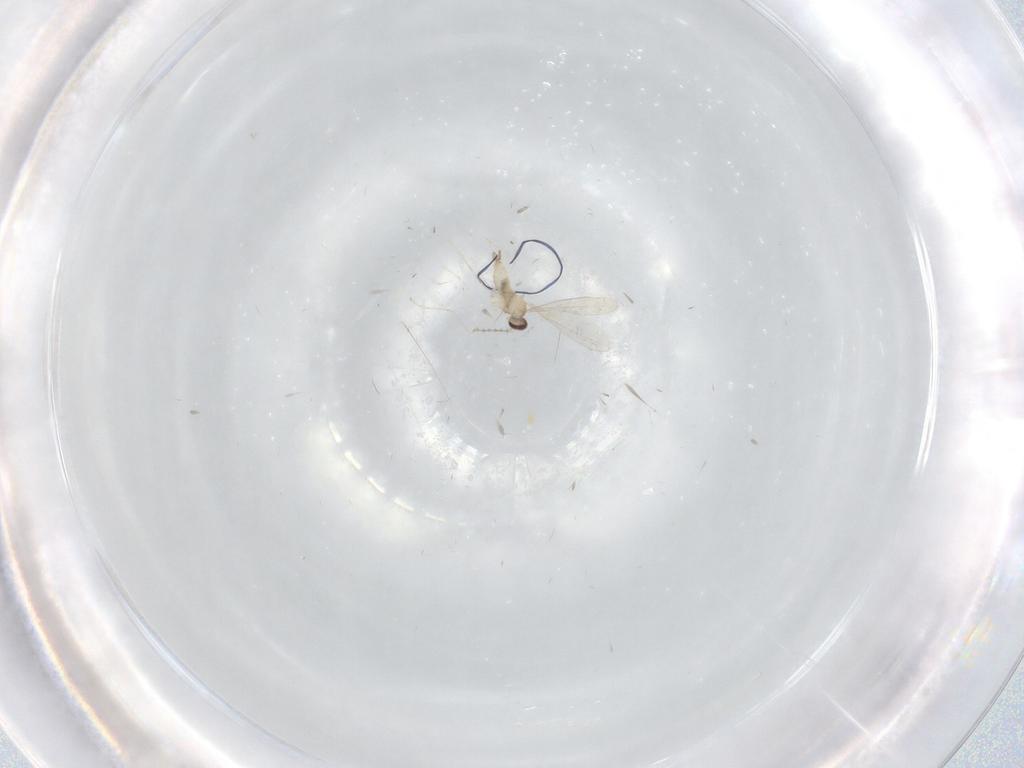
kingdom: Animalia
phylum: Arthropoda
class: Insecta
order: Diptera
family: Cecidomyiidae
